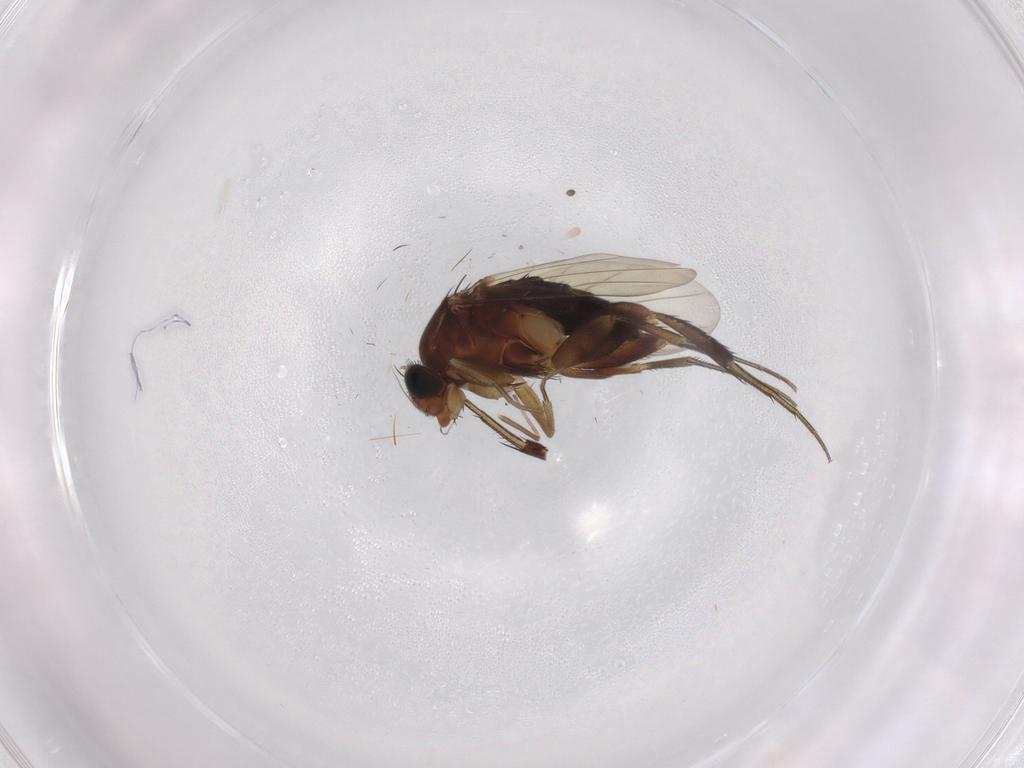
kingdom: Animalia
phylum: Arthropoda
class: Insecta
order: Diptera
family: Phoridae
